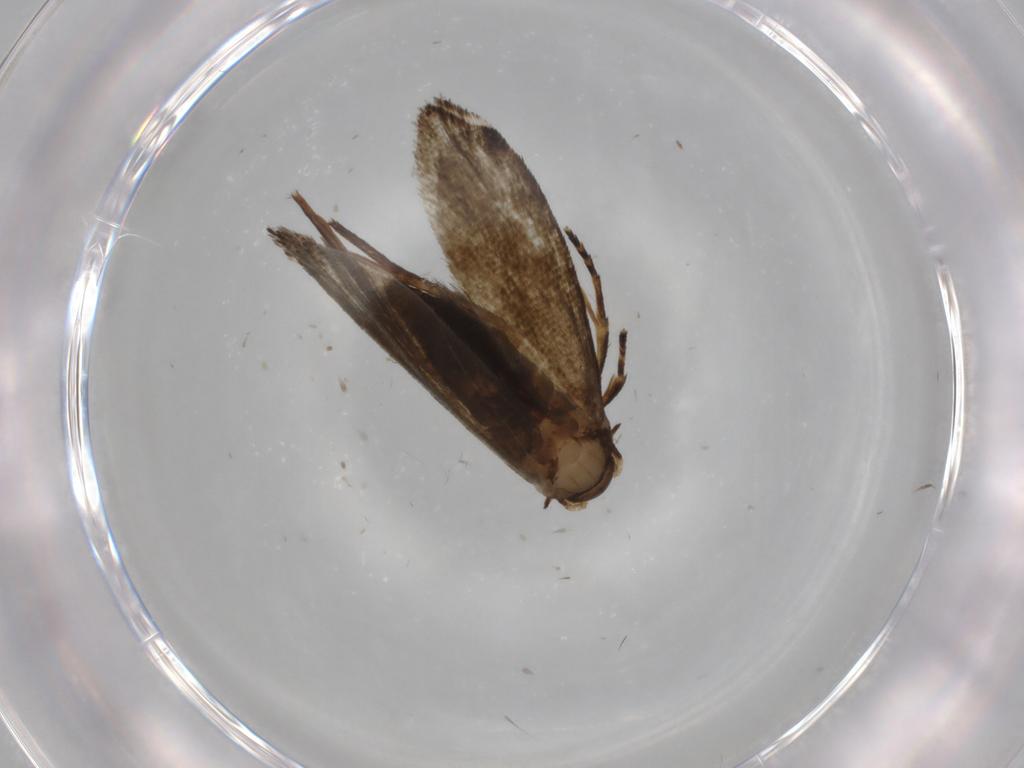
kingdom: Animalia
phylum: Arthropoda
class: Insecta
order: Lepidoptera
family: Crambidae
